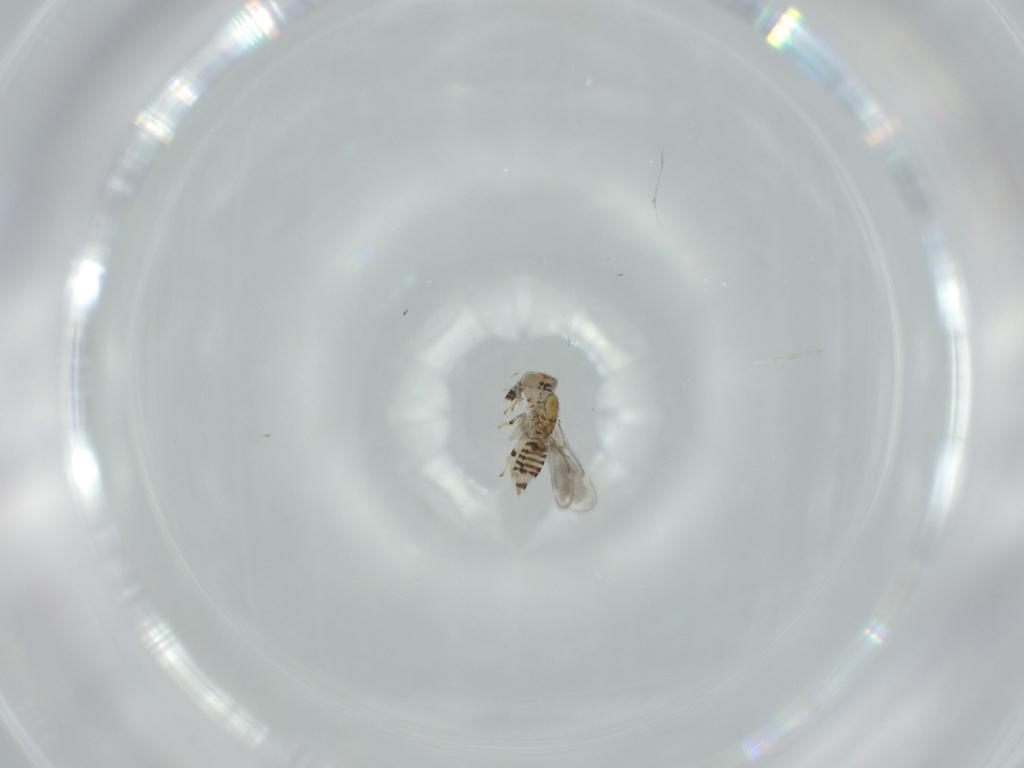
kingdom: Animalia
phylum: Arthropoda
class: Insecta
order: Hymenoptera
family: Aphelinidae
